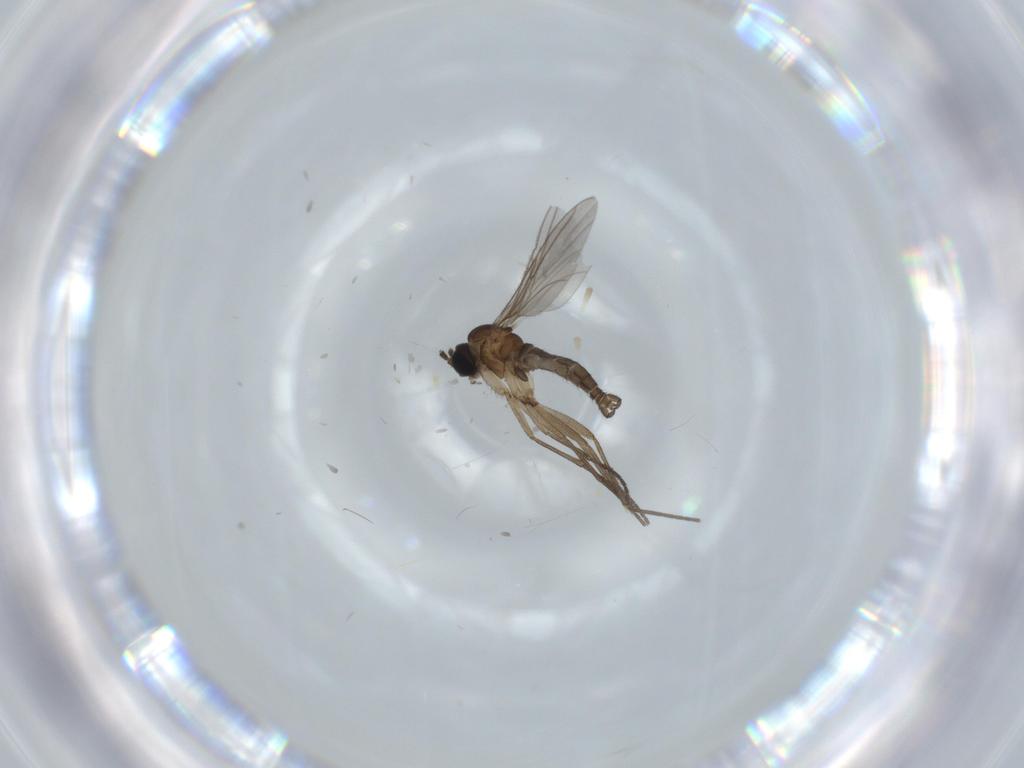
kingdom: Animalia
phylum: Arthropoda
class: Insecta
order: Diptera
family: Sciaridae
